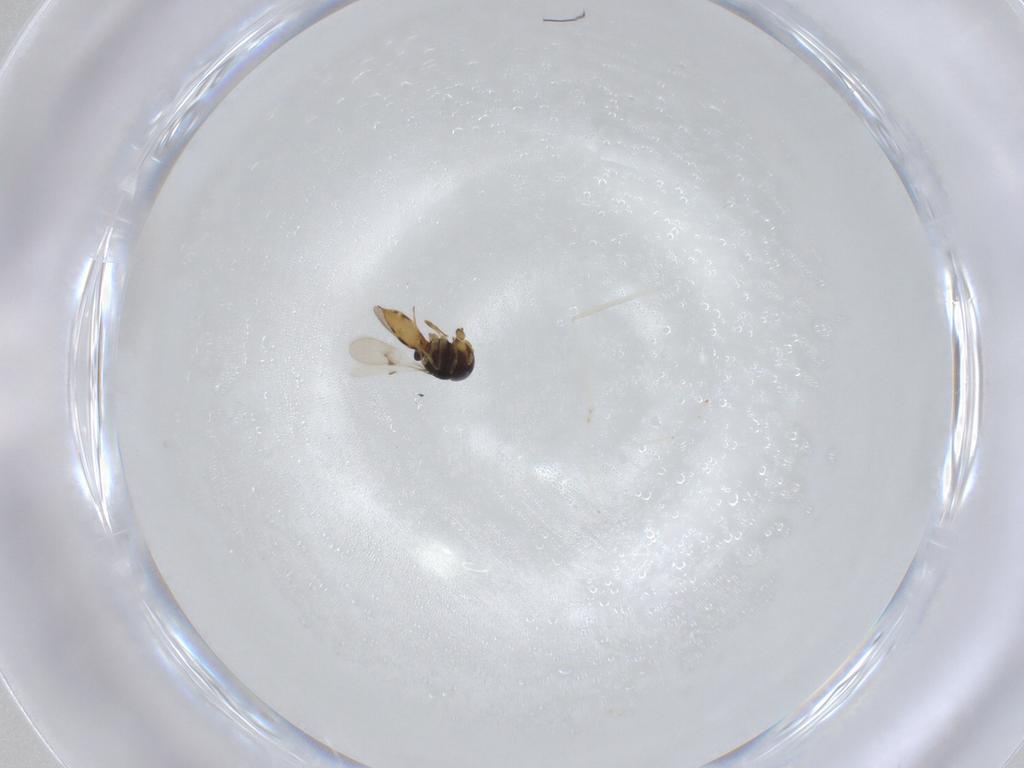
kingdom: Animalia
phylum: Arthropoda
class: Insecta
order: Hymenoptera
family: Scelionidae
